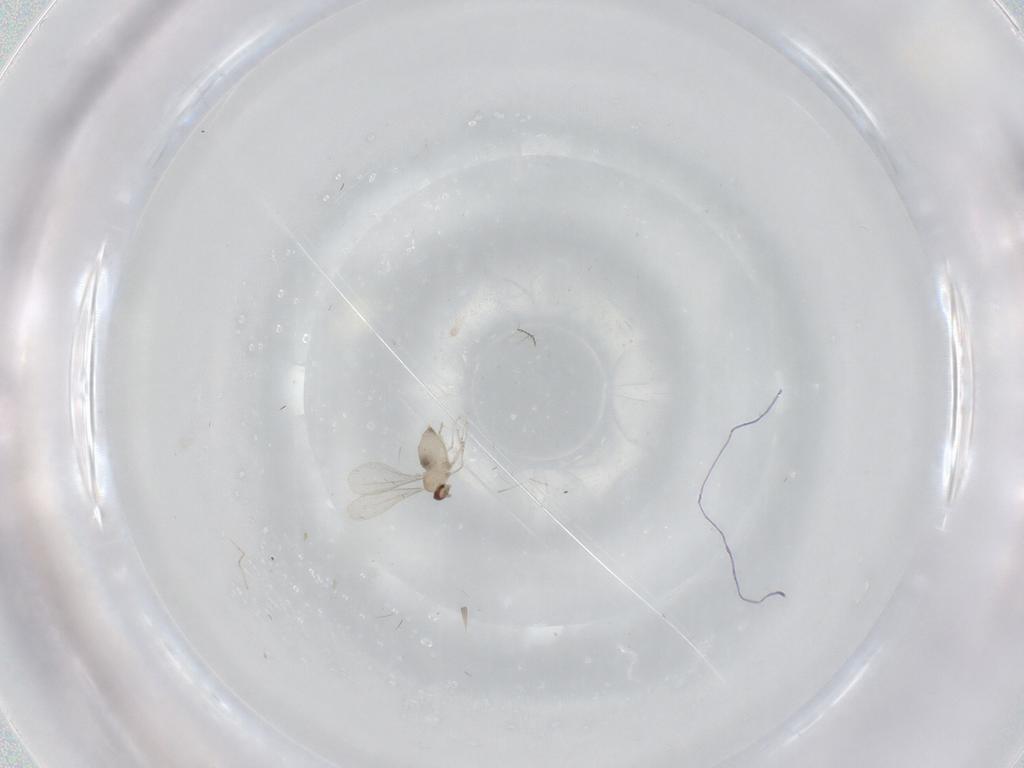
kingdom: Animalia
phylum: Arthropoda
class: Insecta
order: Diptera
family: Cecidomyiidae
